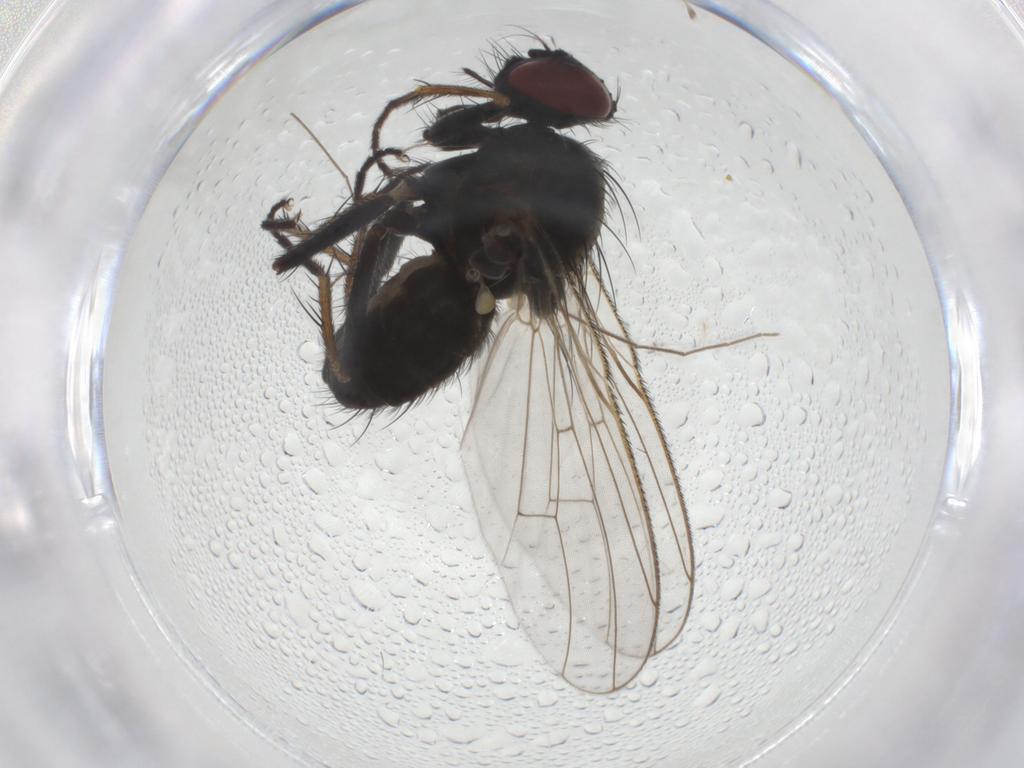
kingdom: Animalia
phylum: Arthropoda
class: Insecta
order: Diptera
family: Muscidae
